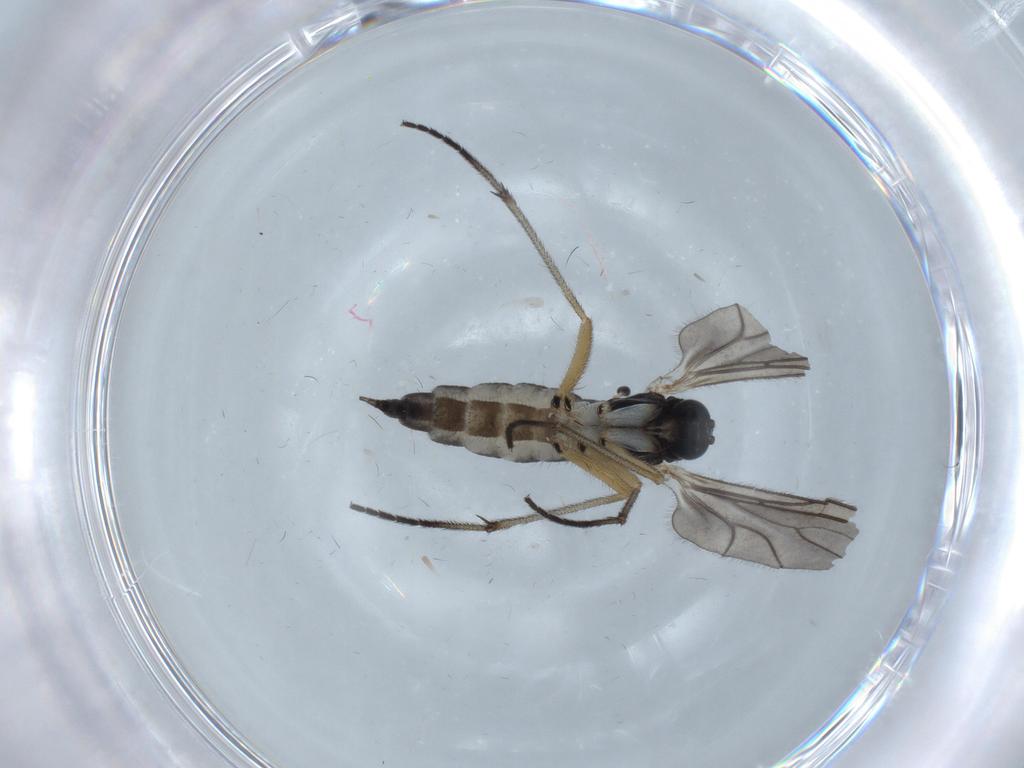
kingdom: Animalia
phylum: Arthropoda
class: Insecta
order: Diptera
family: Sciaridae
